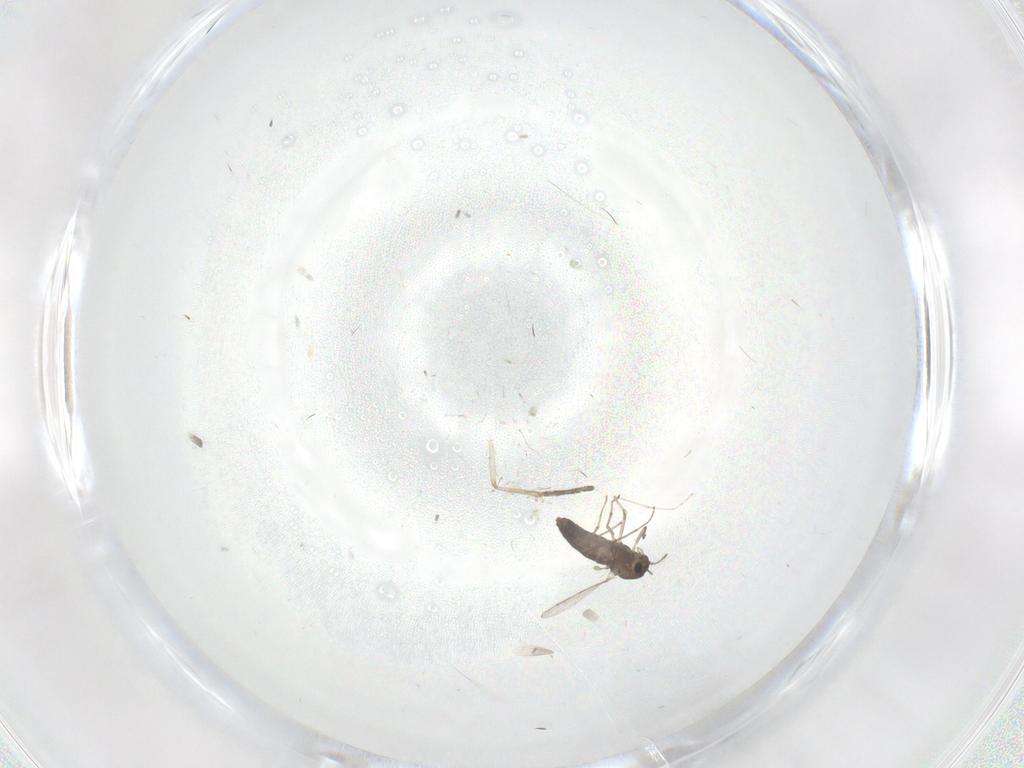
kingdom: Animalia
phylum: Arthropoda
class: Insecta
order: Diptera
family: Chironomidae
